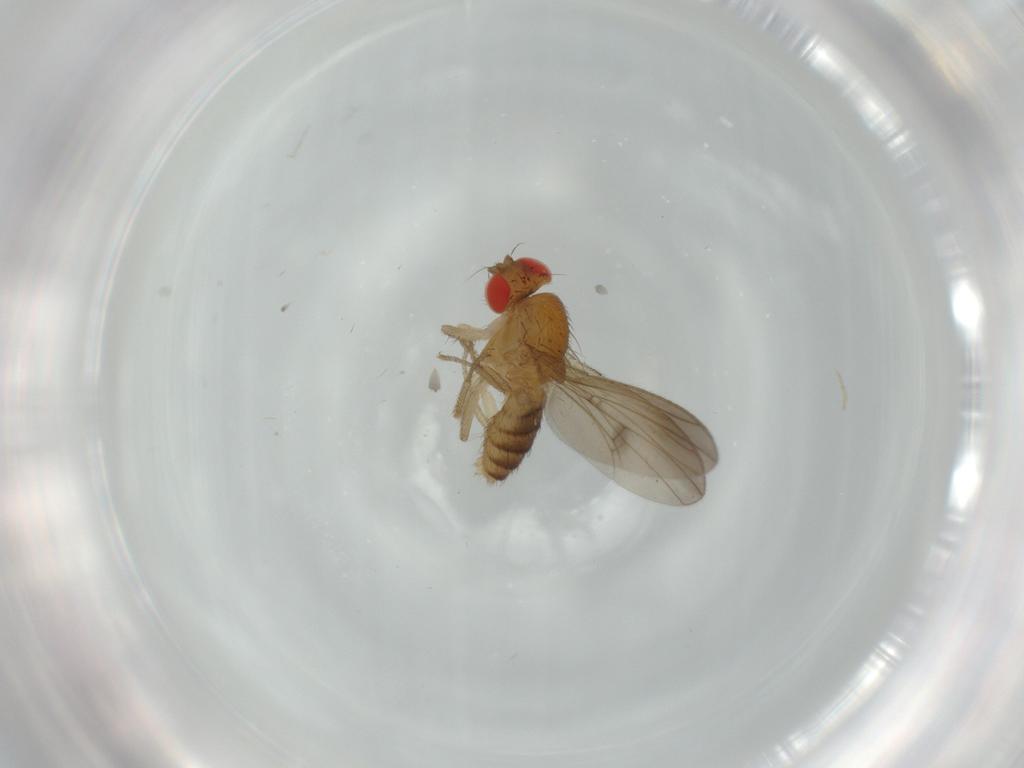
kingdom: Animalia
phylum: Arthropoda
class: Insecta
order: Diptera
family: Drosophilidae
